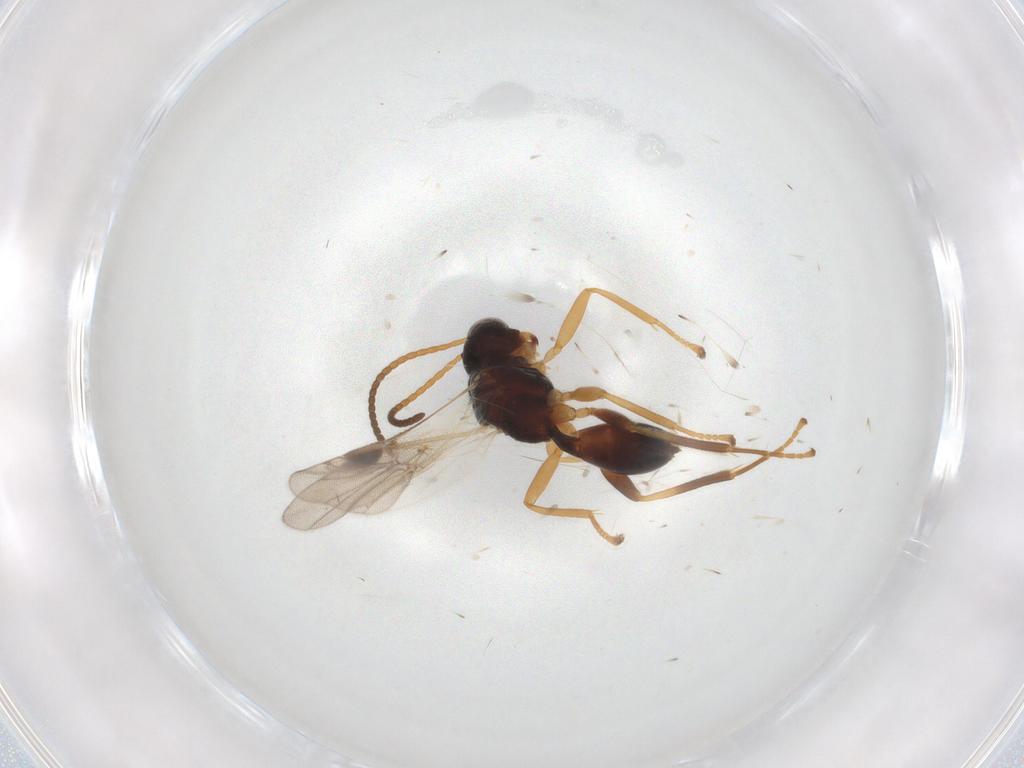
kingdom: Animalia
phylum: Arthropoda
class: Insecta
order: Hymenoptera
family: Braconidae
